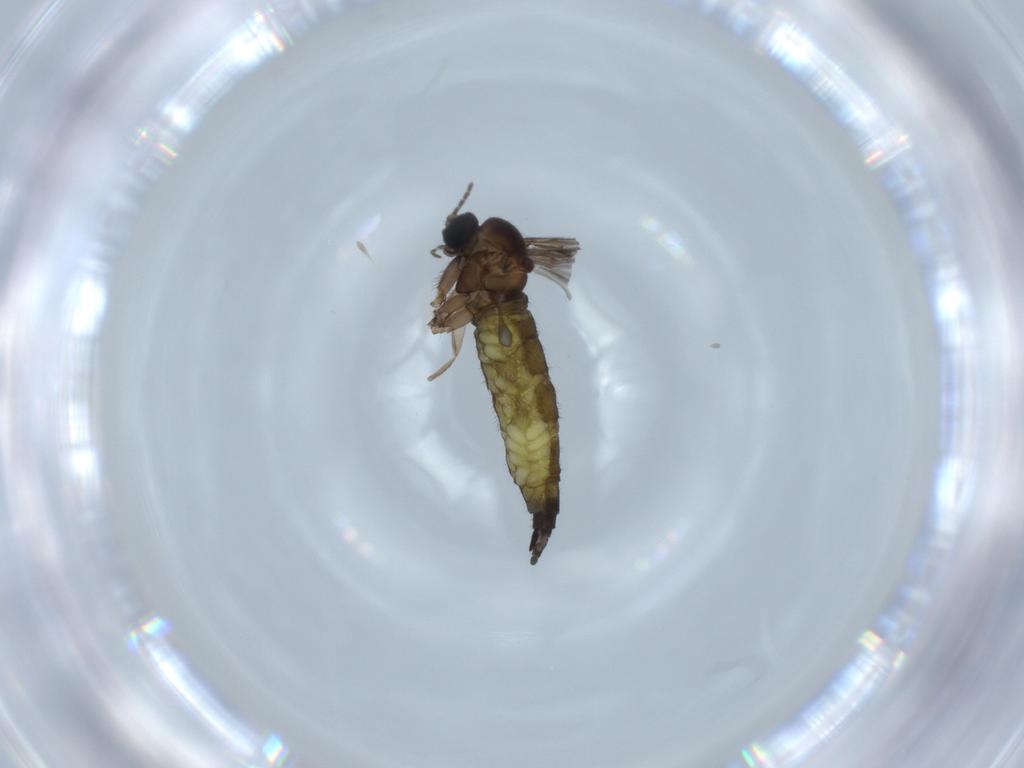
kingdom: Animalia
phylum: Arthropoda
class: Insecta
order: Diptera
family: Sciaridae
